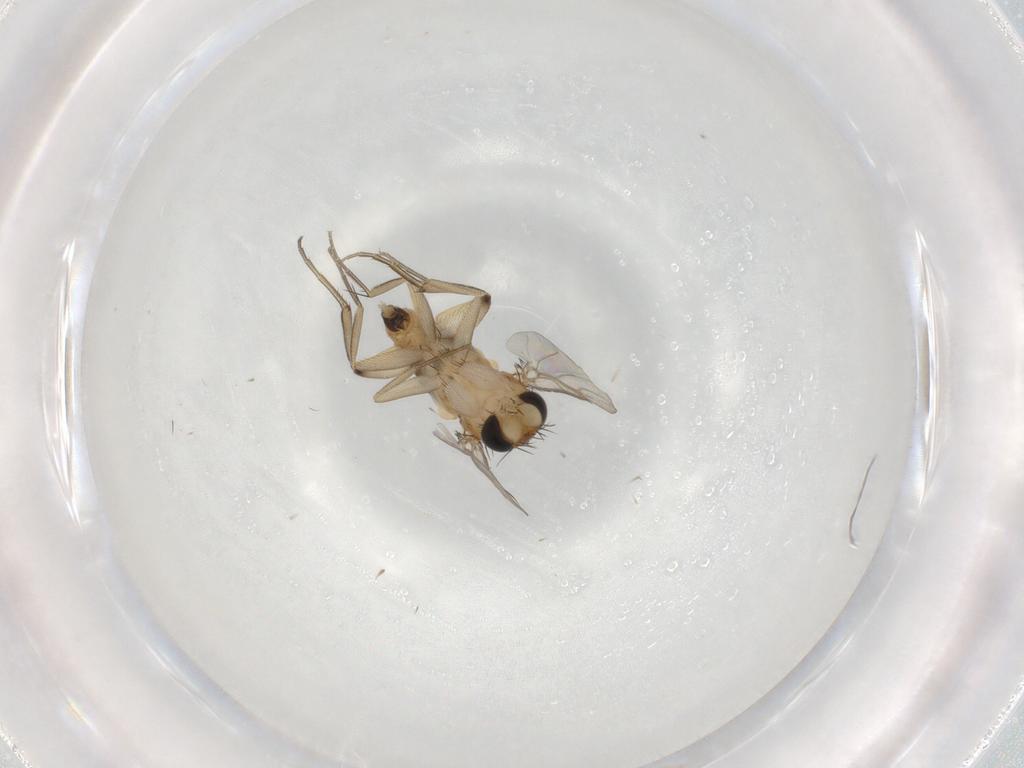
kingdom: Animalia
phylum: Arthropoda
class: Insecta
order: Diptera
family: Phoridae
